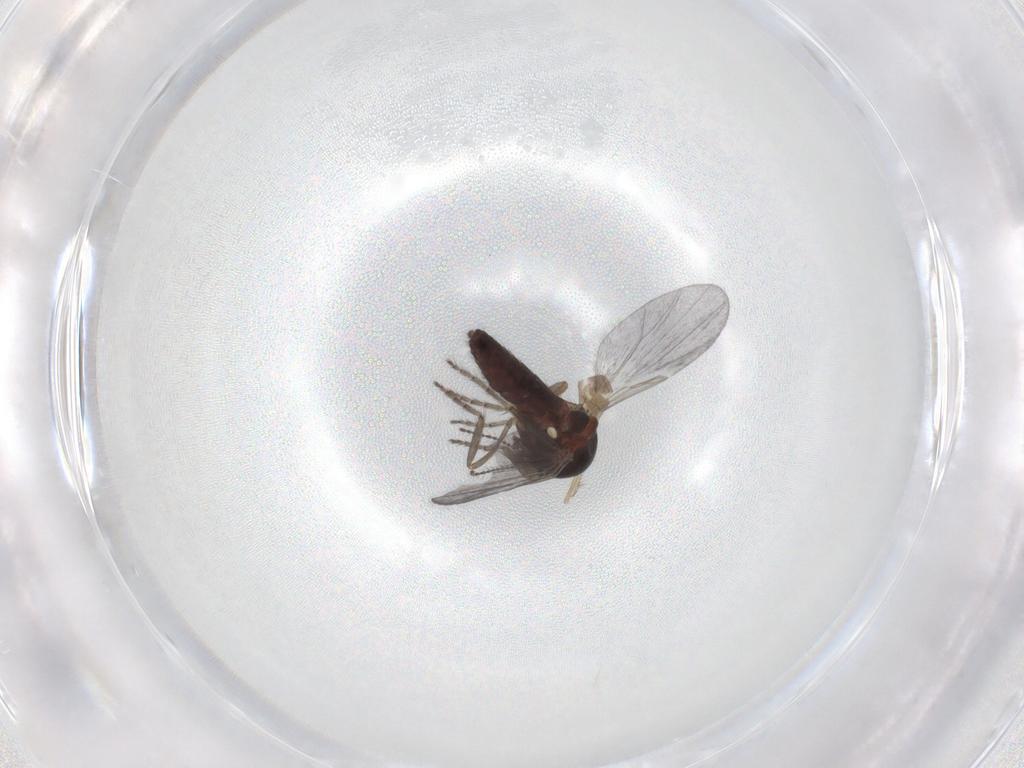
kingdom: Animalia
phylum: Arthropoda
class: Insecta
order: Diptera
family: Ceratopogonidae
